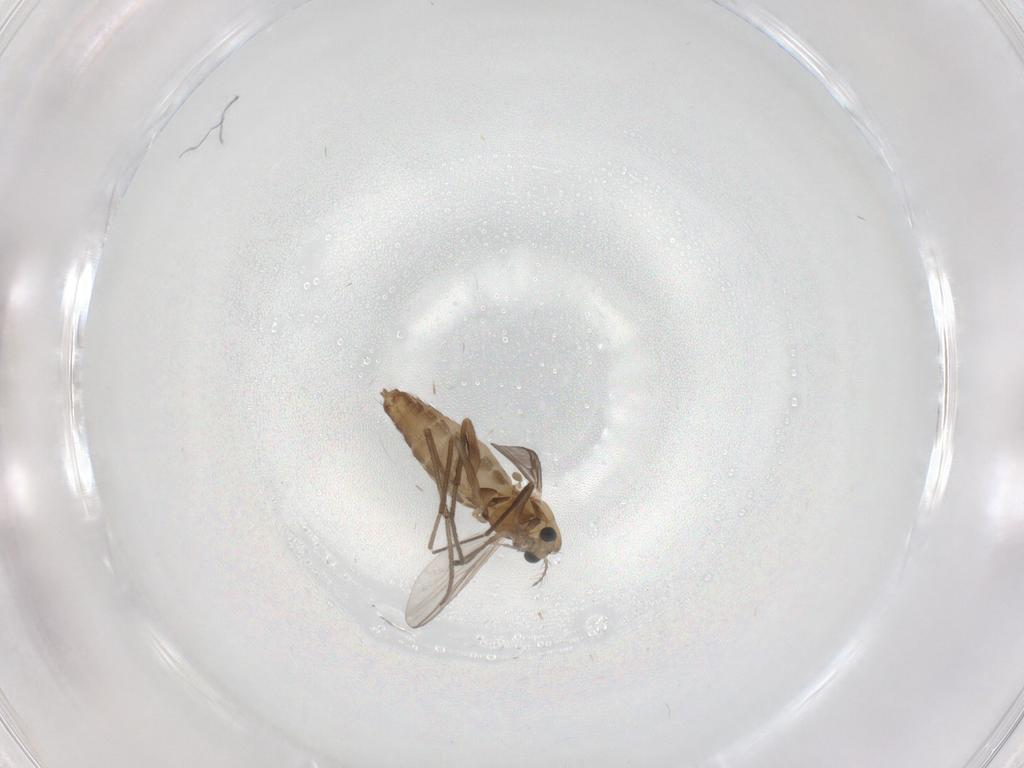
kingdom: Animalia
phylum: Arthropoda
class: Insecta
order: Diptera
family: Chironomidae
